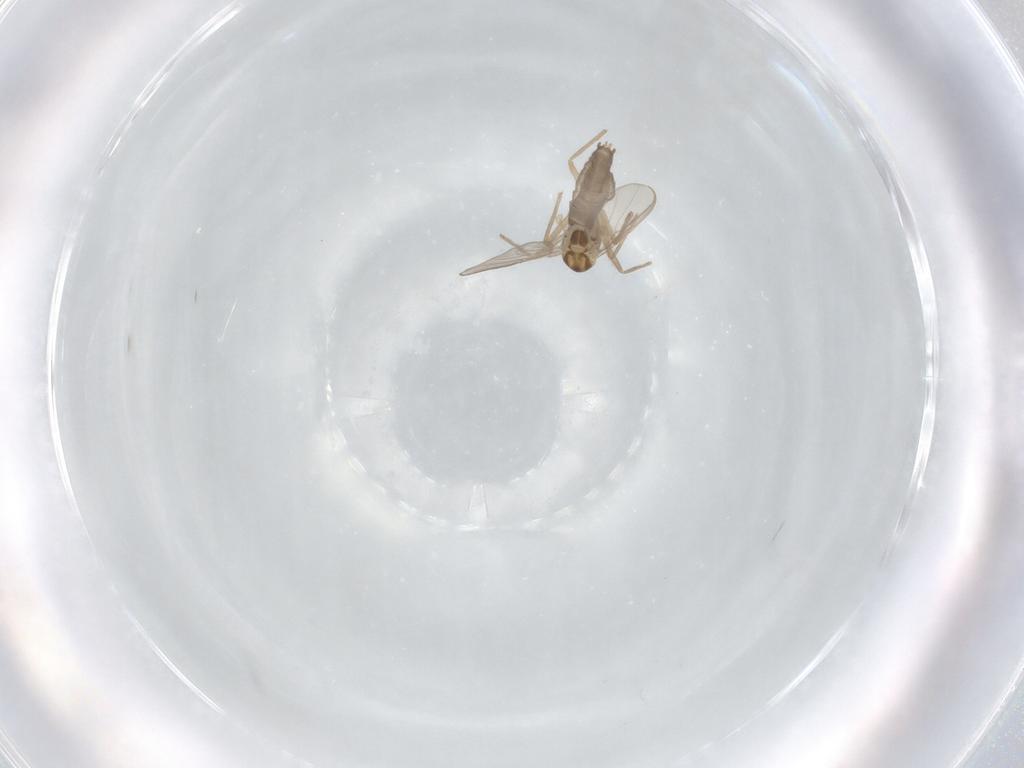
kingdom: Animalia
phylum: Arthropoda
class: Insecta
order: Diptera
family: Chironomidae
